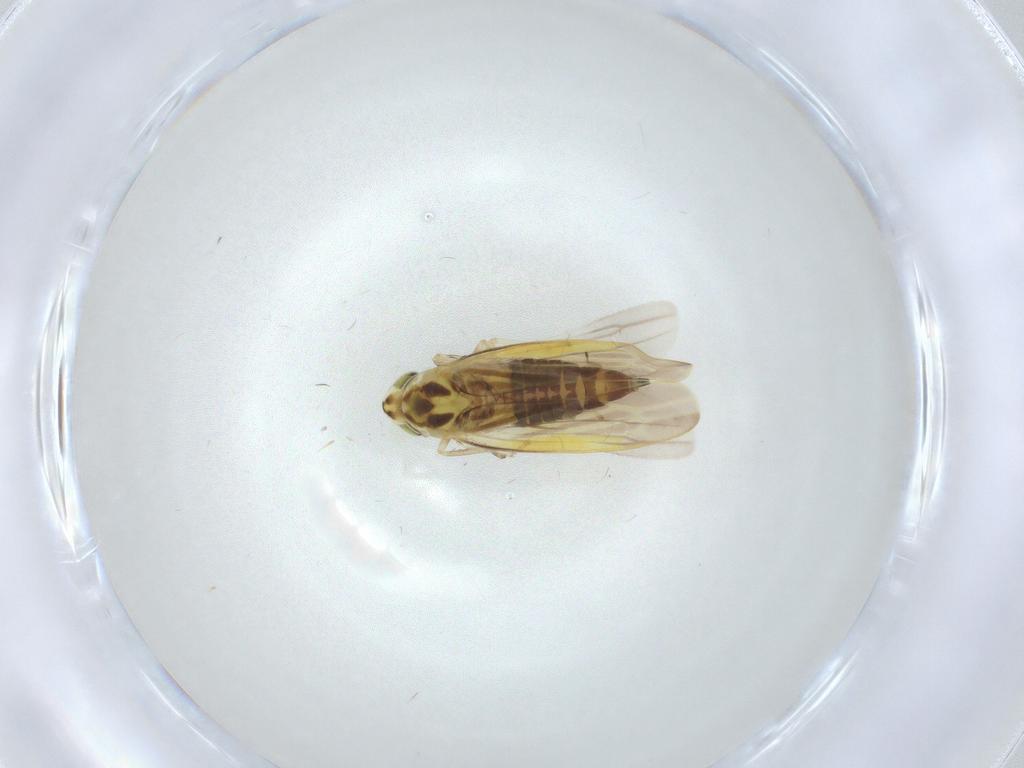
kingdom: Animalia
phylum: Arthropoda
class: Insecta
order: Hemiptera
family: Cicadellidae
